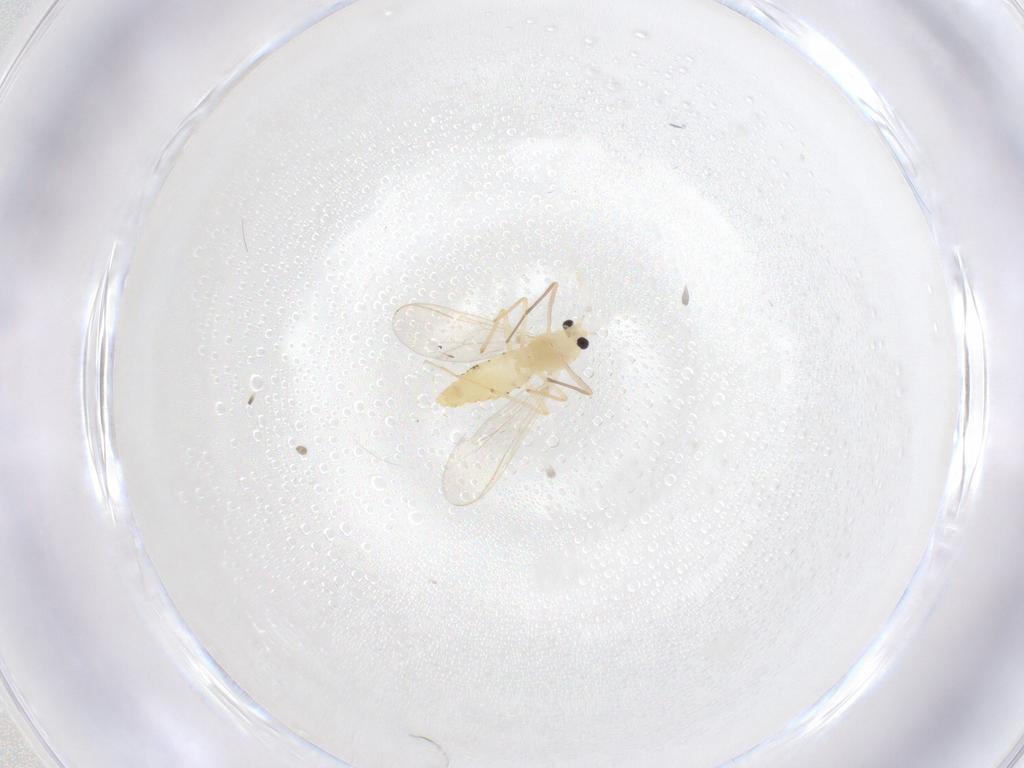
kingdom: Animalia
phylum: Arthropoda
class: Insecta
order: Diptera
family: Chironomidae
